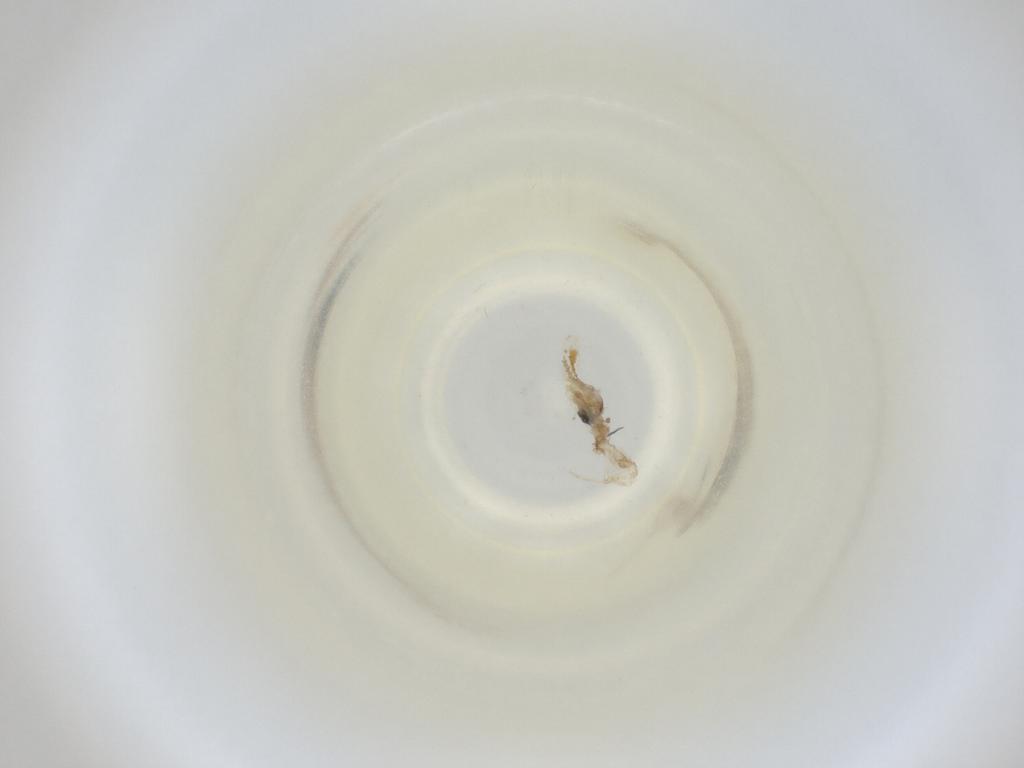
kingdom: Animalia
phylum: Arthropoda
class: Insecta
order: Diptera
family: Cecidomyiidae
